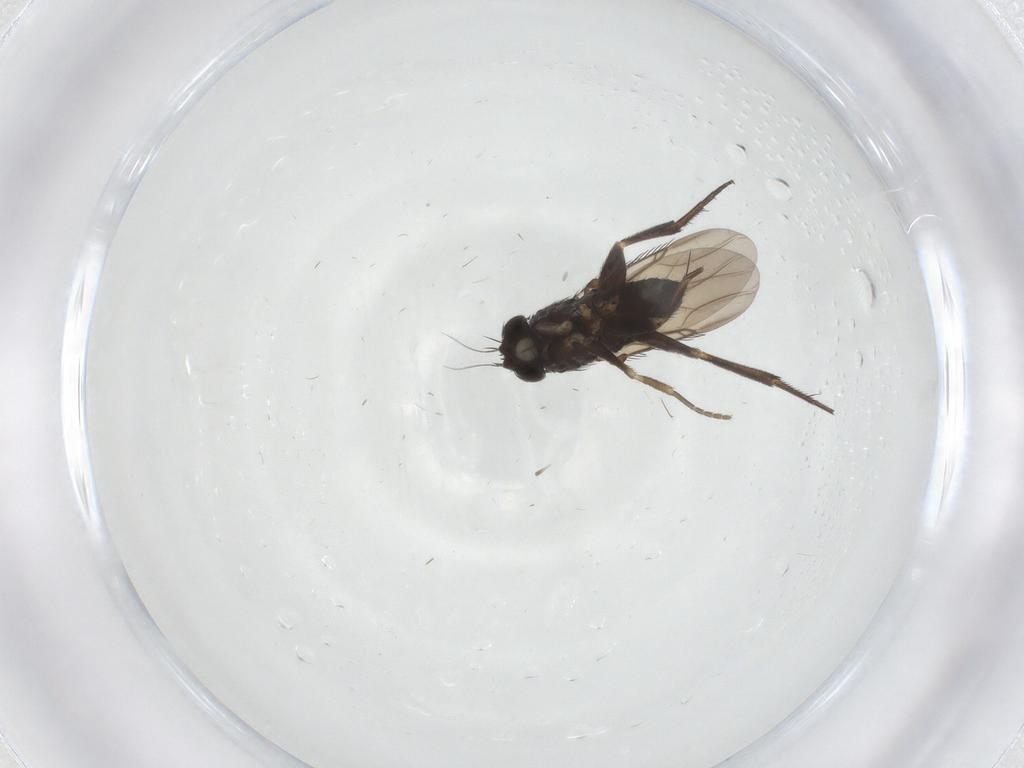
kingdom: Animalia
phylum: Arthropoda
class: Insecta
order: Diptera
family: Phoridae
